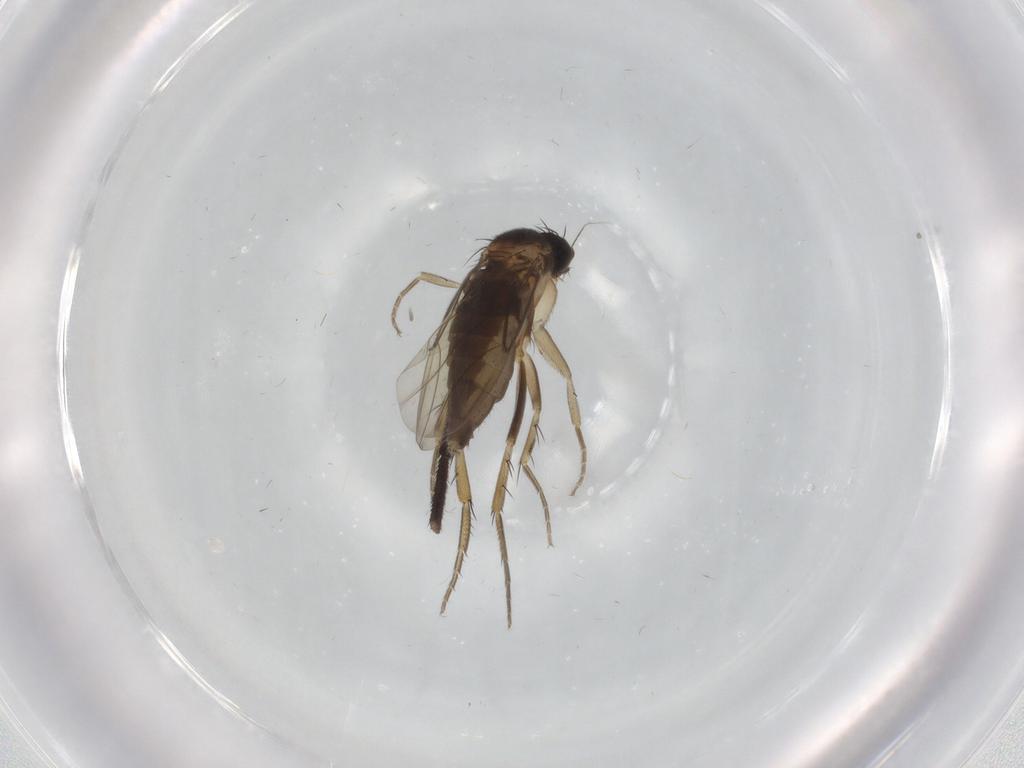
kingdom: Animalia
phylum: Arthropoda
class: Insecta
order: Diptera
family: Phoridae
